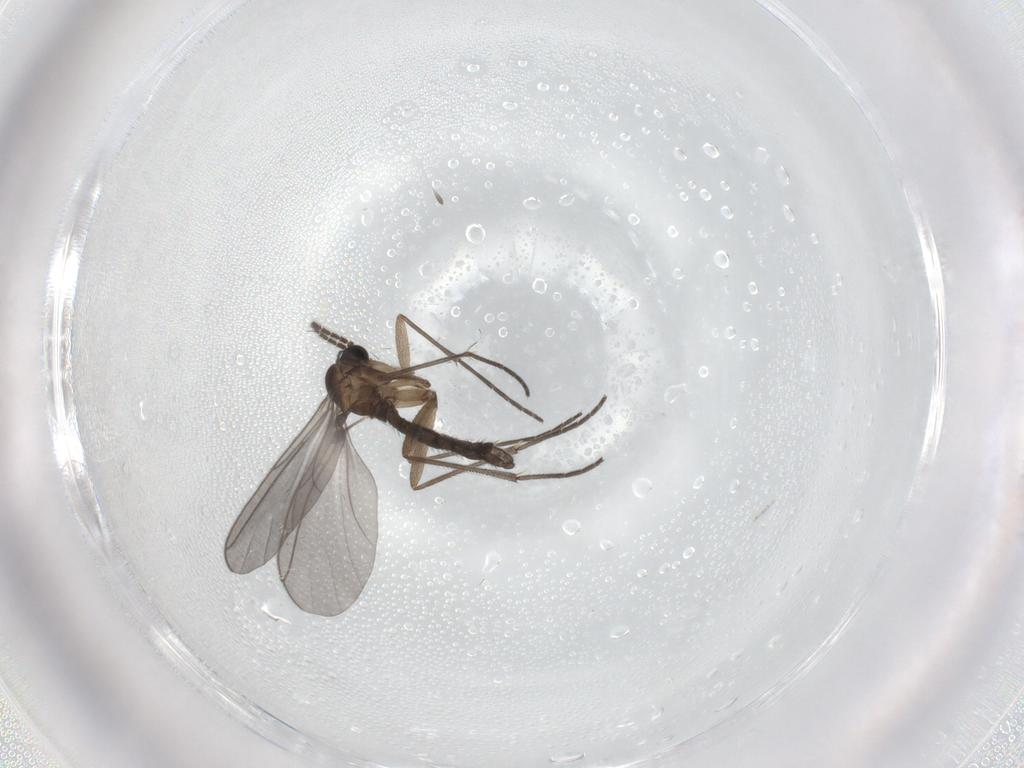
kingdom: Animalia
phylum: Arthropoda
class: Insecta
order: Diptera
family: Sciaridae
